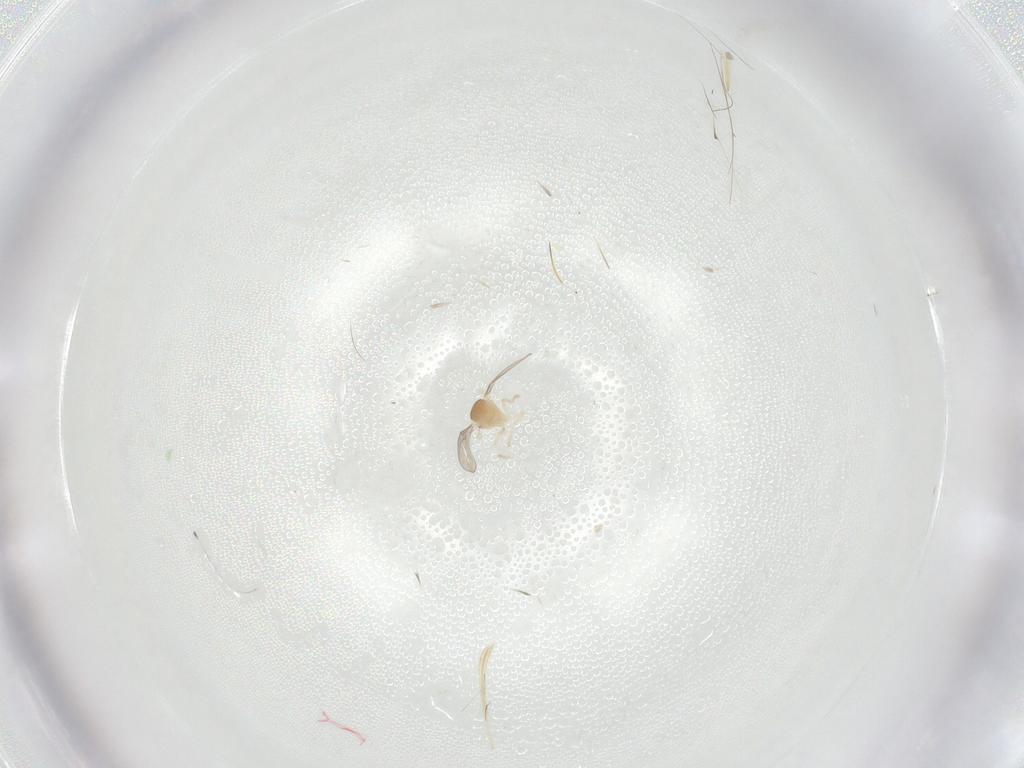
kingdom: Animalia
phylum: Arthropoda
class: Insecta
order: Diptera
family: Cecidomyiidae
